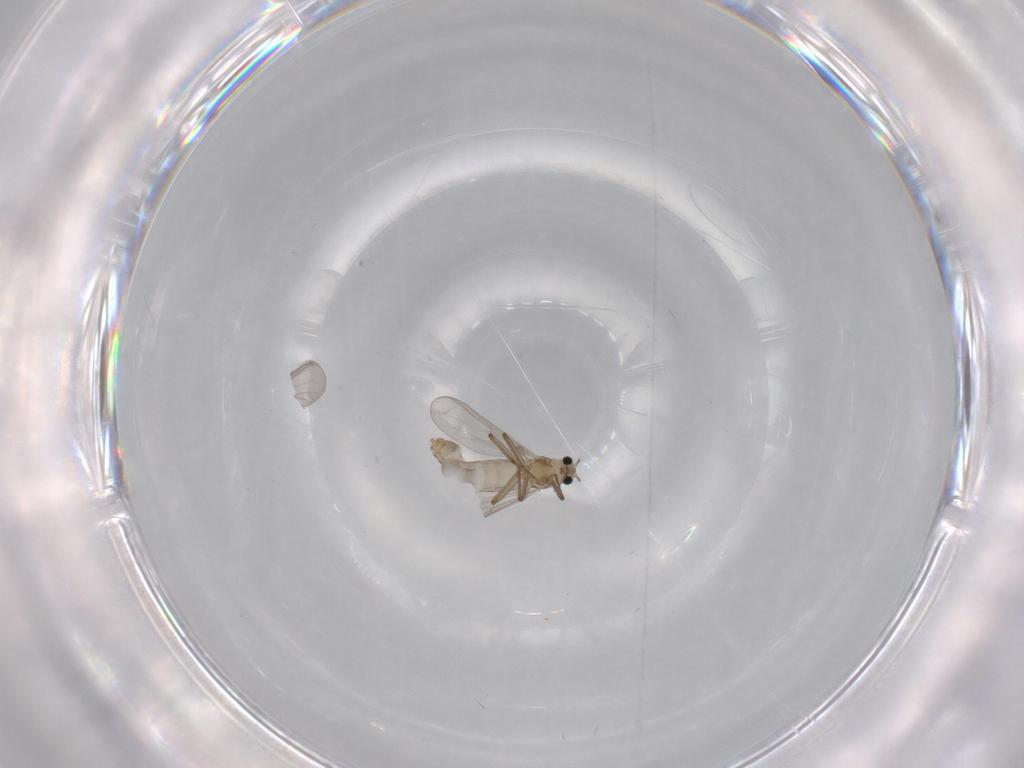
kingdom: Animalia
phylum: Arthropoda
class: Insecta
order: Diptera
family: Chironomidae
